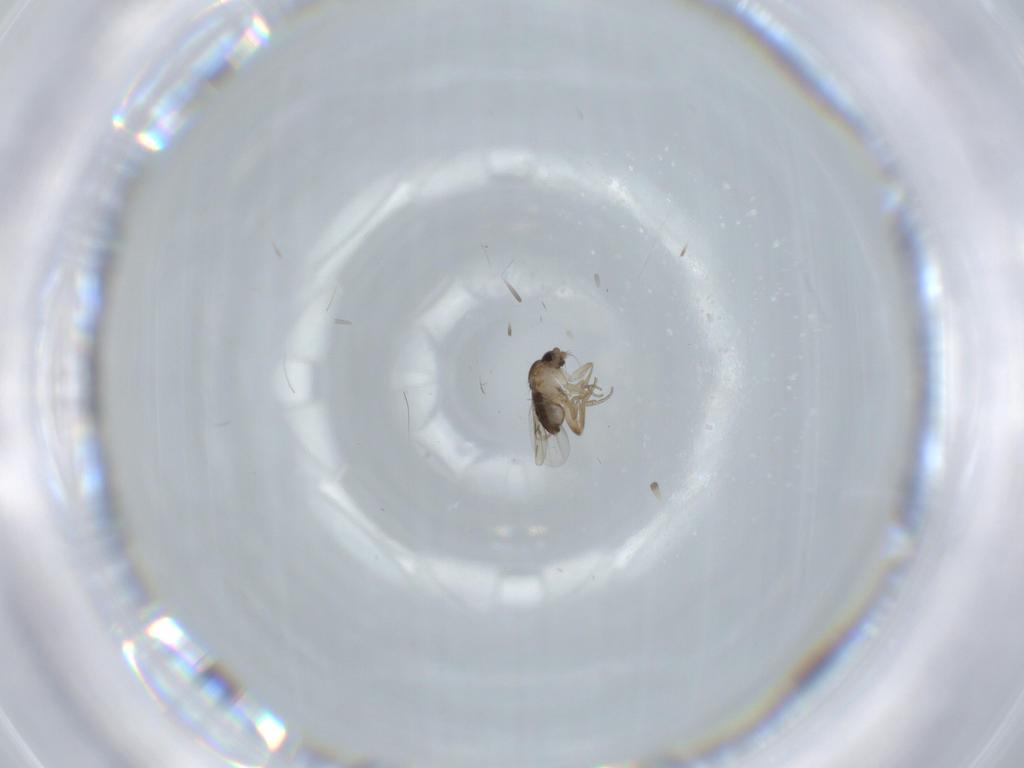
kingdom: Animalia
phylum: Arthropoda
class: Insecta
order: Diptera
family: Phoridae
